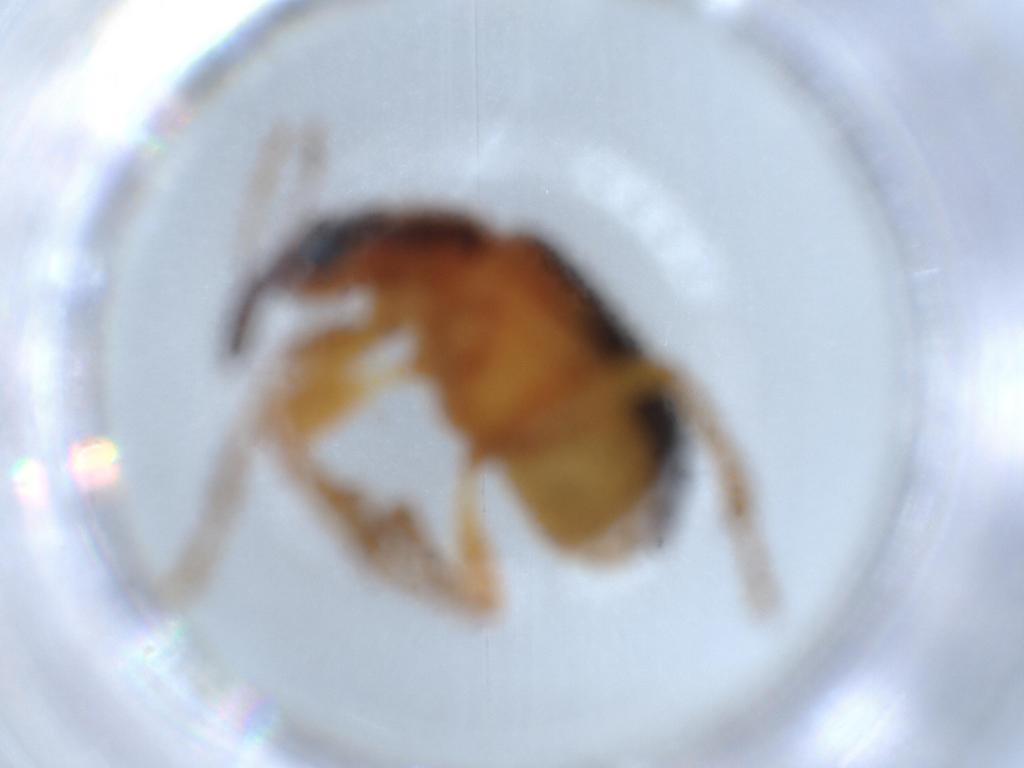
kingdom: Animalia
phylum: Arthropoda
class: Insecta
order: Coleoptera
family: Attelabidae
